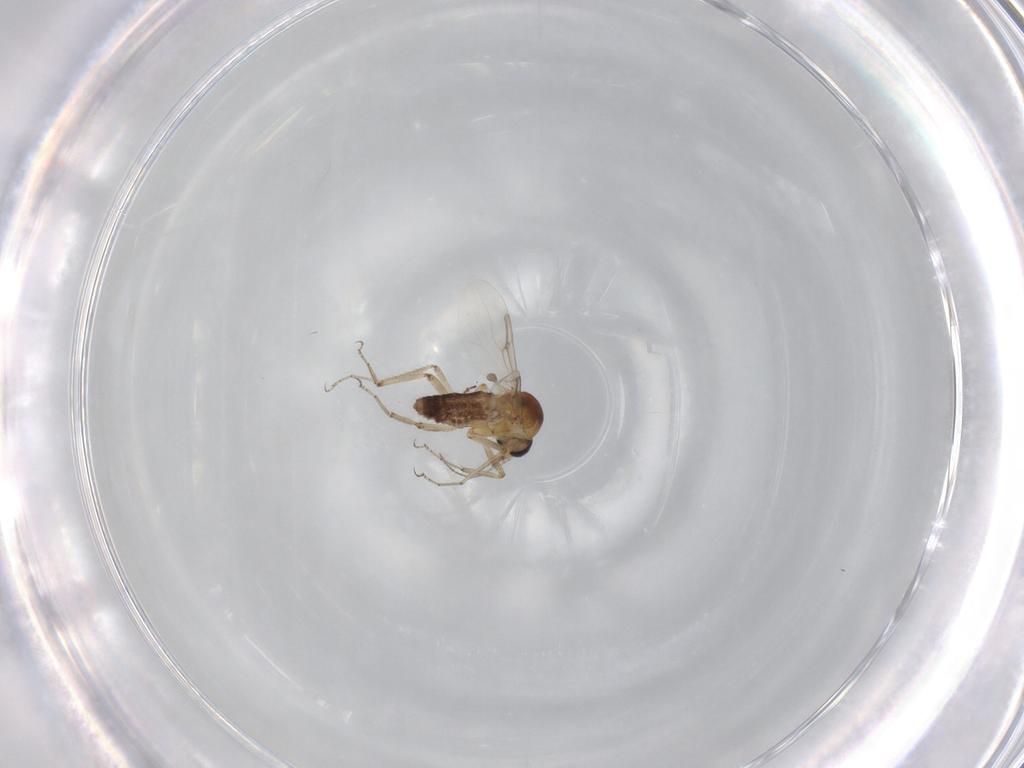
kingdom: Animalia
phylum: Arthropoda
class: Insecta
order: Diptera
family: Ceratopogonidae
